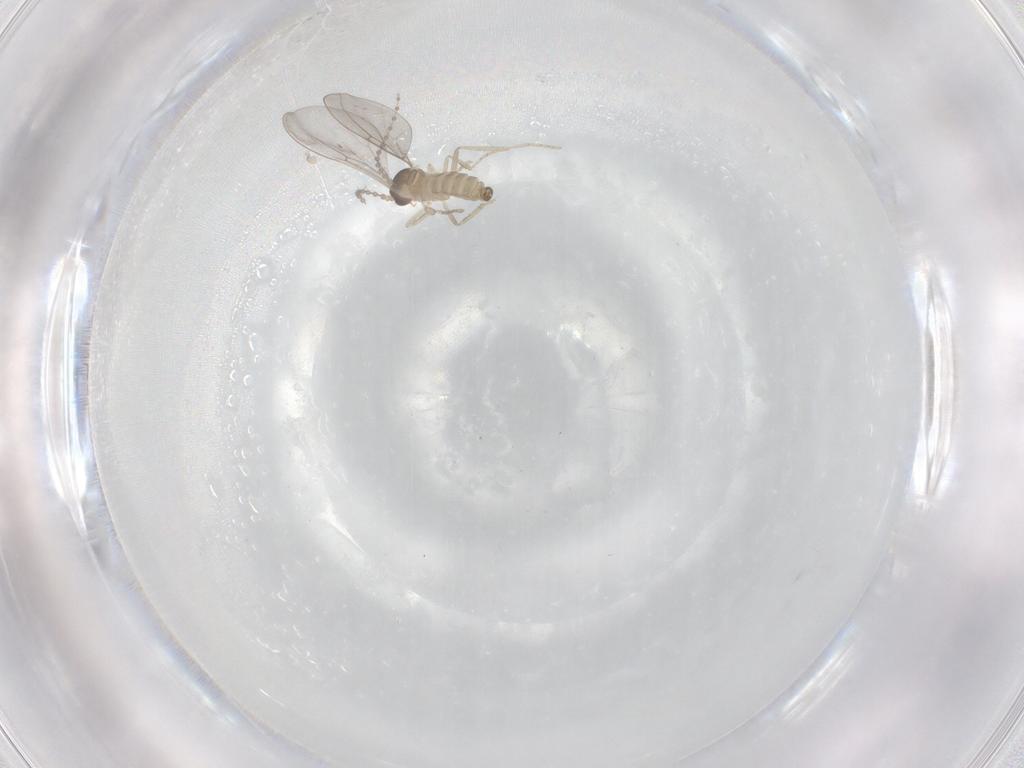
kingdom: Animalia
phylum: Arthropoda
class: Insecta
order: Diptera
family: Cecidomyiidae
